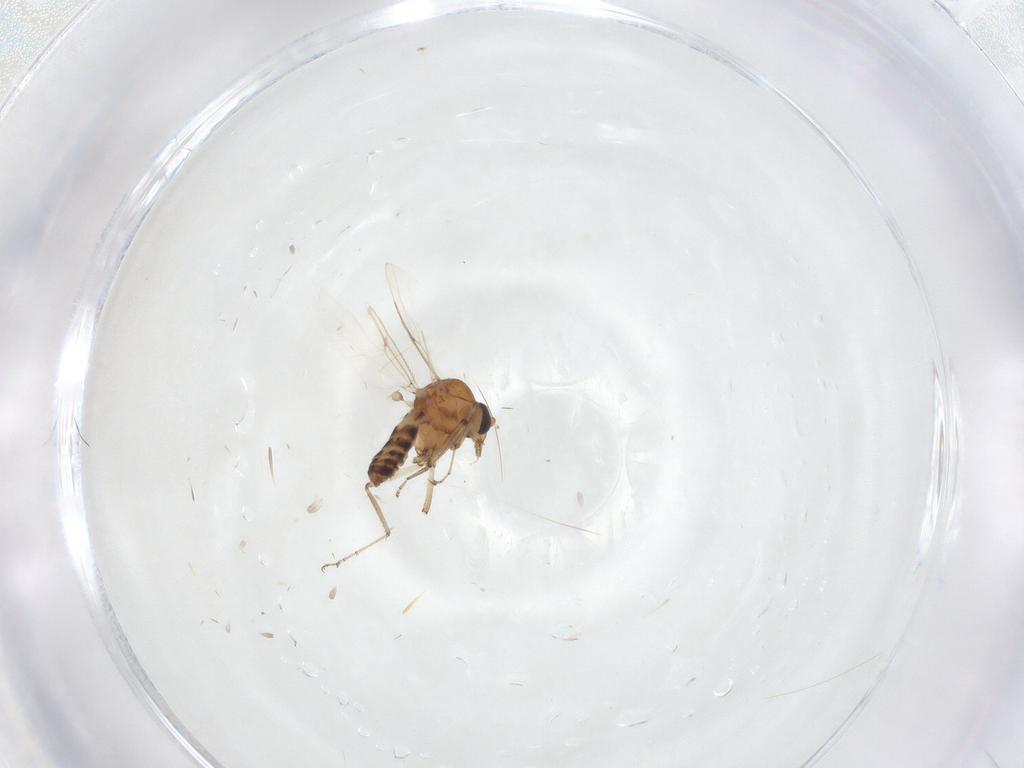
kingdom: Animalia
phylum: Arthropoda
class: Insecta
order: Diptera
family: Ceratopogonidae
